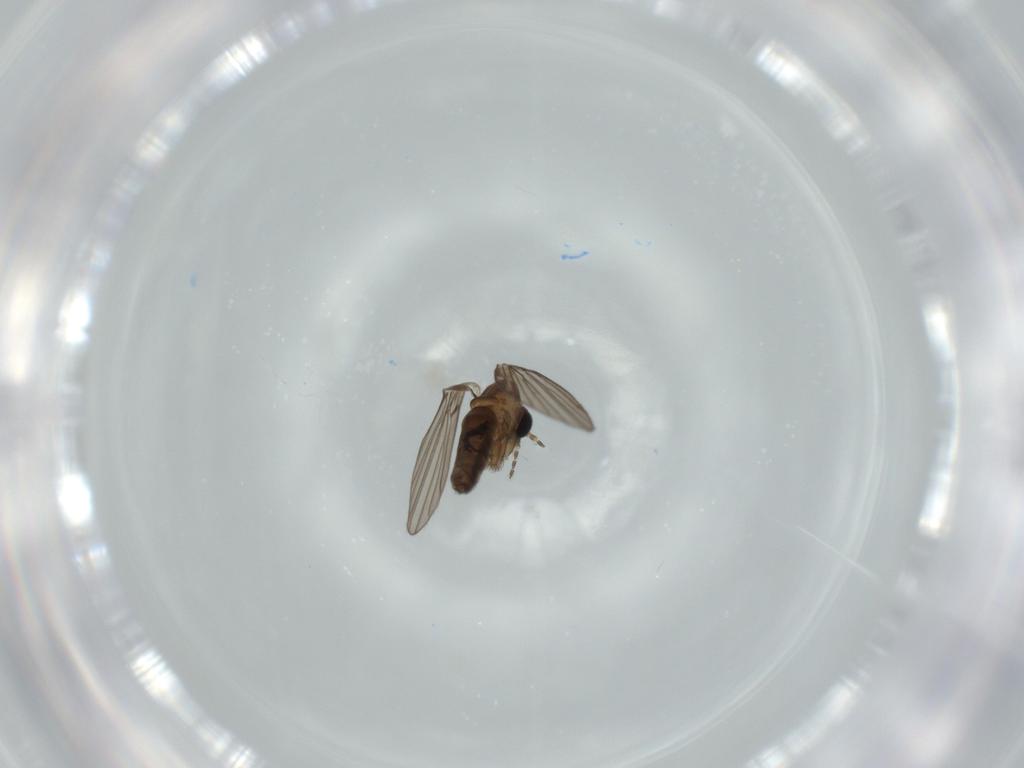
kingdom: Animalia
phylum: Arthropoda
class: Insecta
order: Diptera
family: Psychodidae
